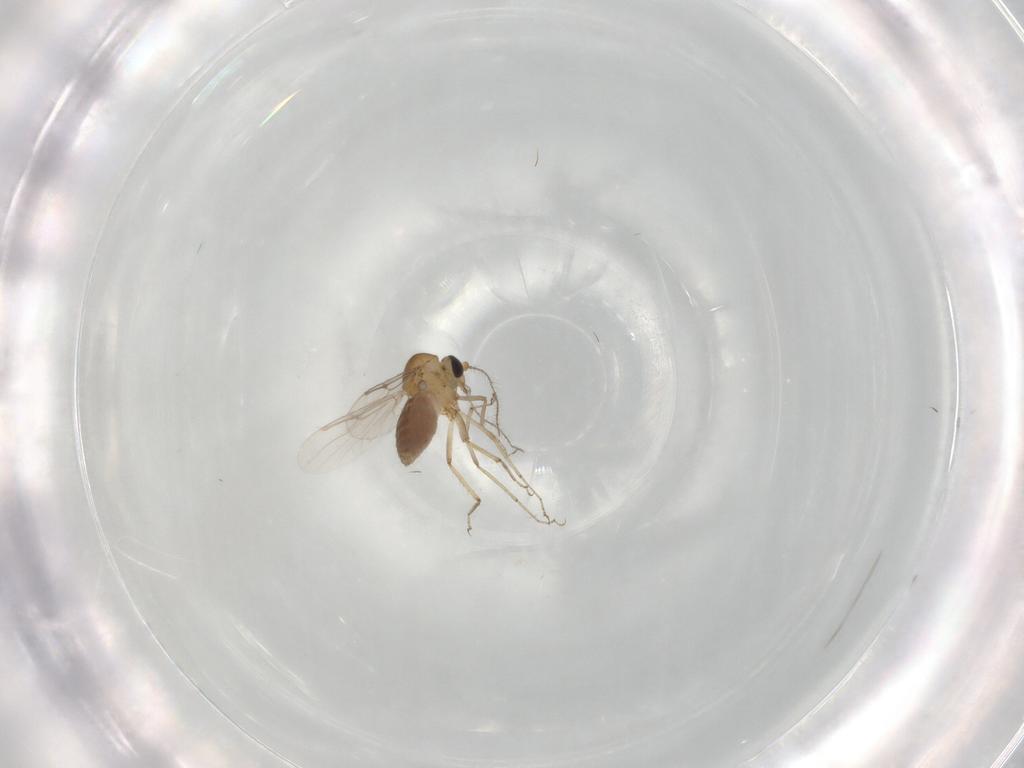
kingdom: Animalia
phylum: Arthropoda
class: Insecta
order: Diptera
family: Ceratopogonidae
